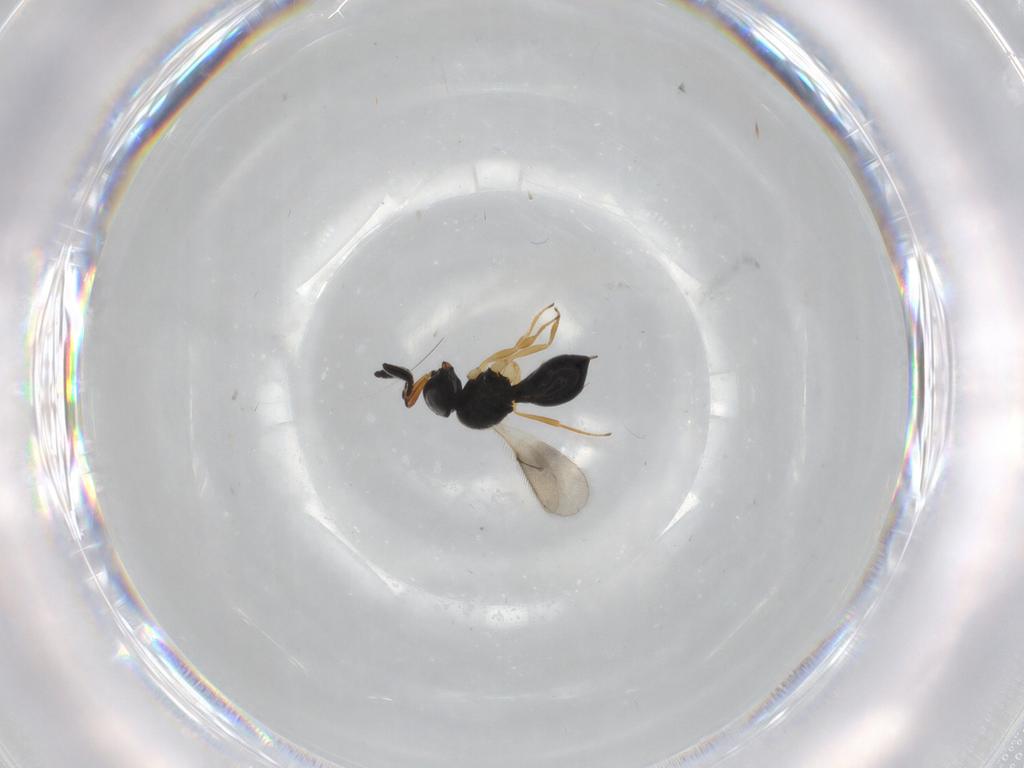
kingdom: Animalia
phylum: Arthropoda
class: Insecta
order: Hymenoptera
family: Scelionidae
